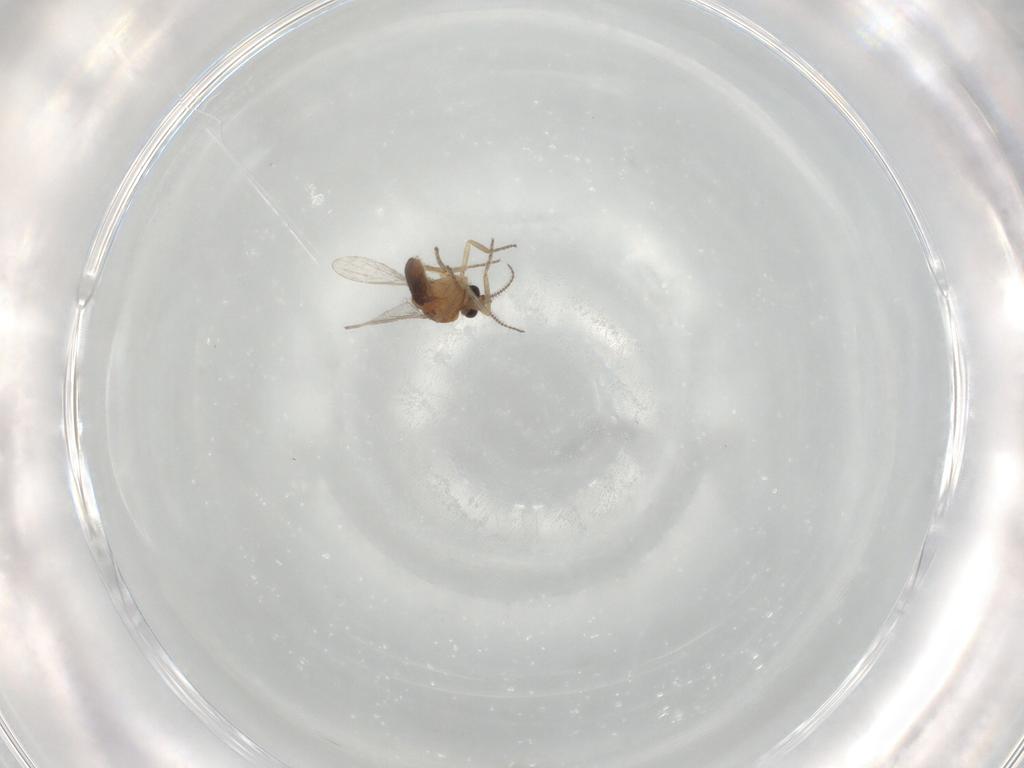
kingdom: Animalia
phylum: Arthropoda
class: Insecta
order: Diptera
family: Ceratopogonidae
